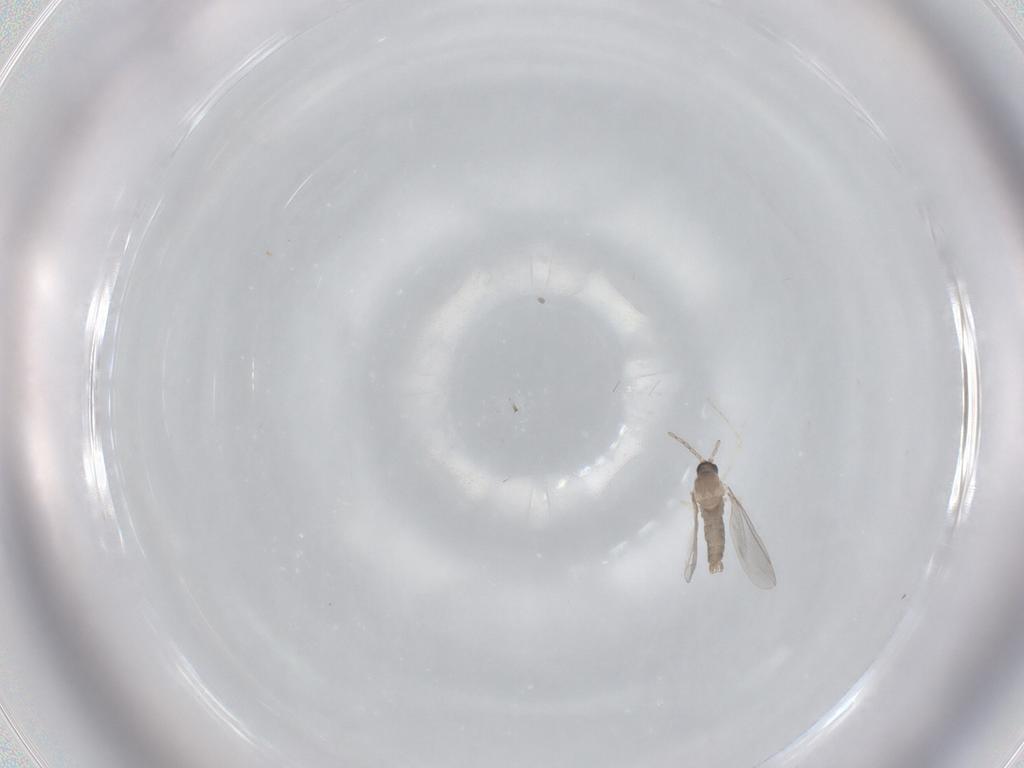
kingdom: Animalia
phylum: Arthropoda
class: Insecta
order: Diptera
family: Cecidomyiidae
